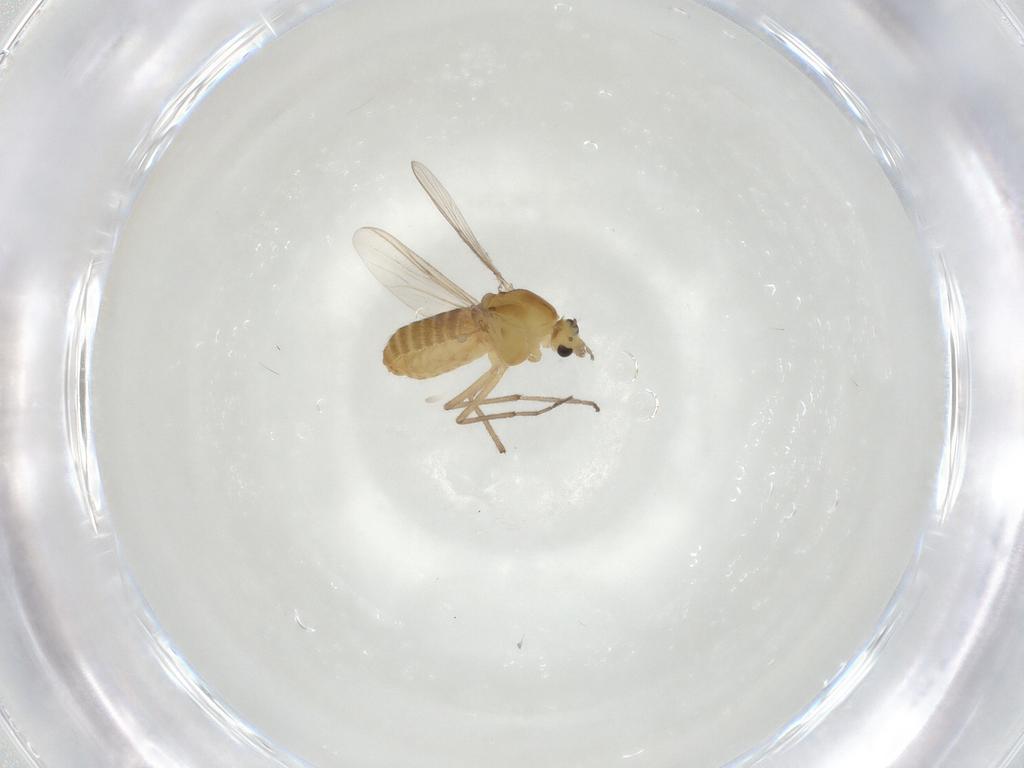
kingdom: Animalia
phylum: Arthropoda
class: Insecta
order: Diptera
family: Chironomidae
